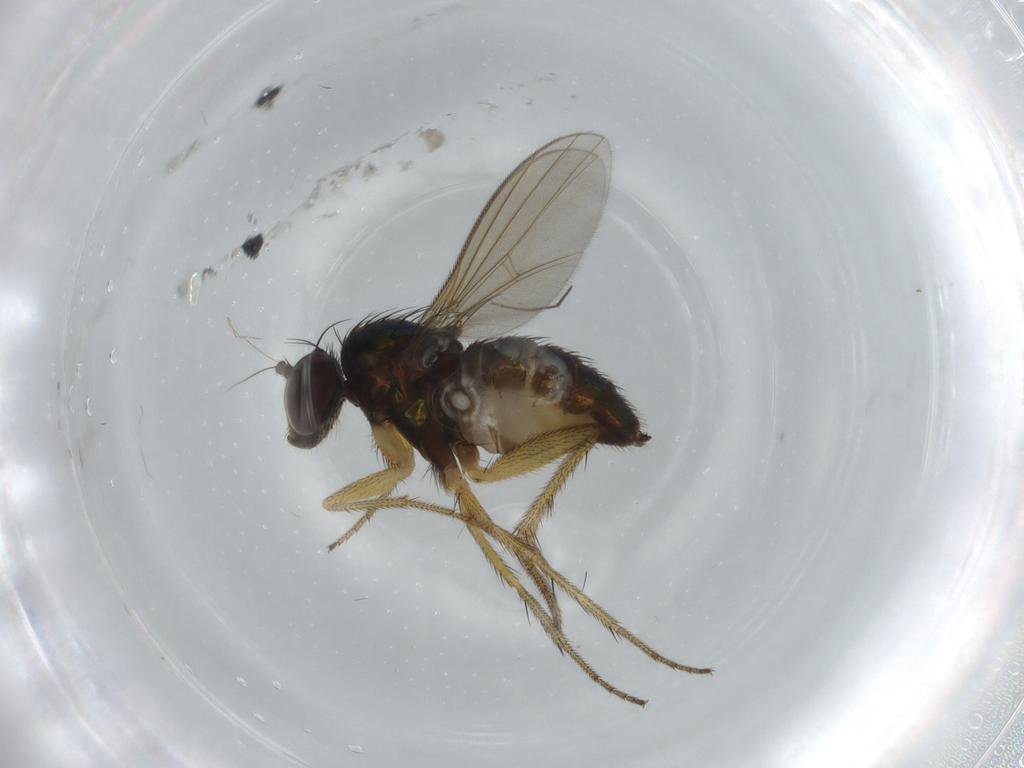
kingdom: Animalia
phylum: Arthropoda
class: Insecta
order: Diptera
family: Dolichopodidae
